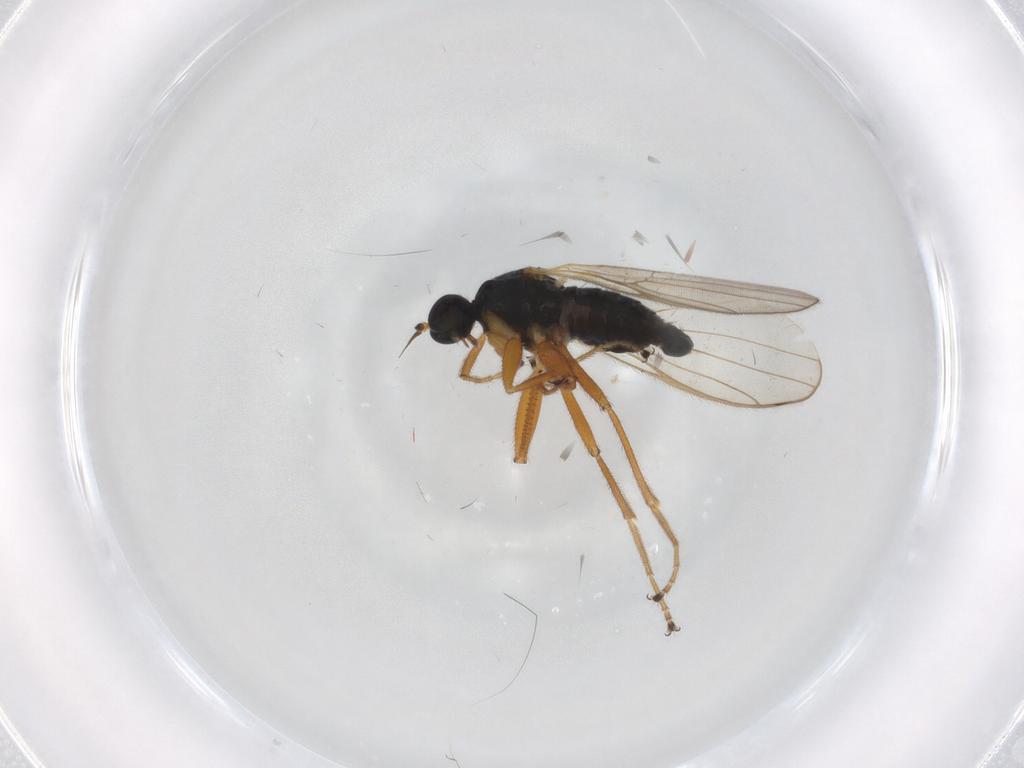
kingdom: Animalia
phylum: Arthropoda
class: Insecta
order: Diptera
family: Hybotidae
